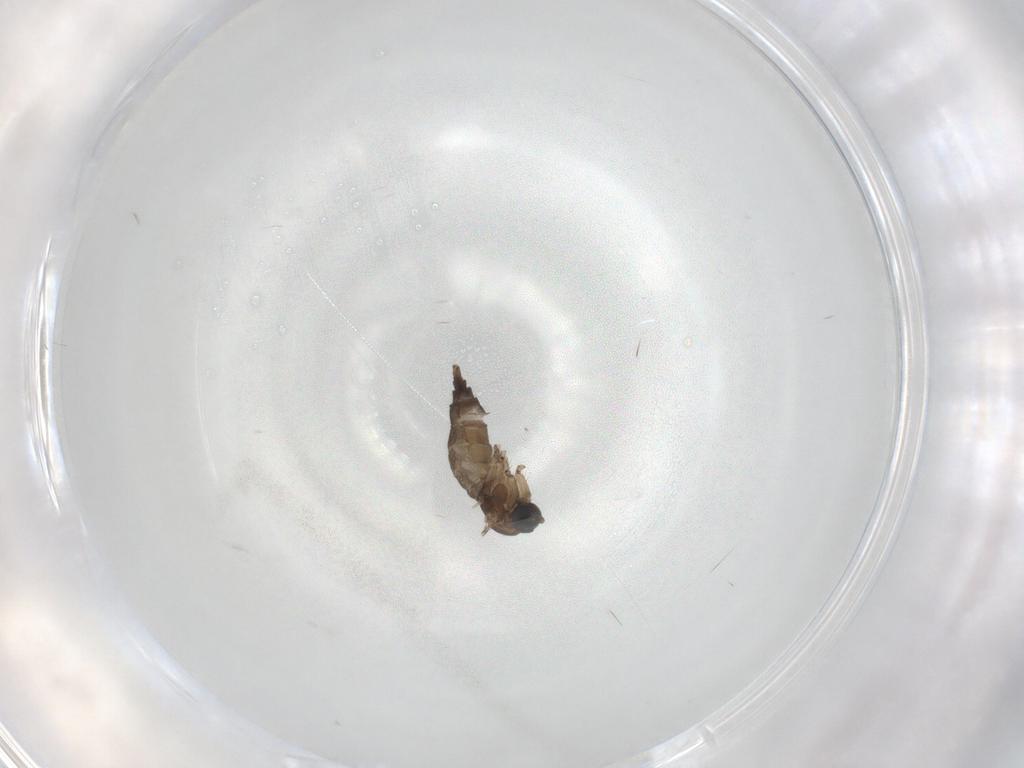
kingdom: Animalia
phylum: Arthropoda
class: Insecta
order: Diptera
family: Sciaridae
